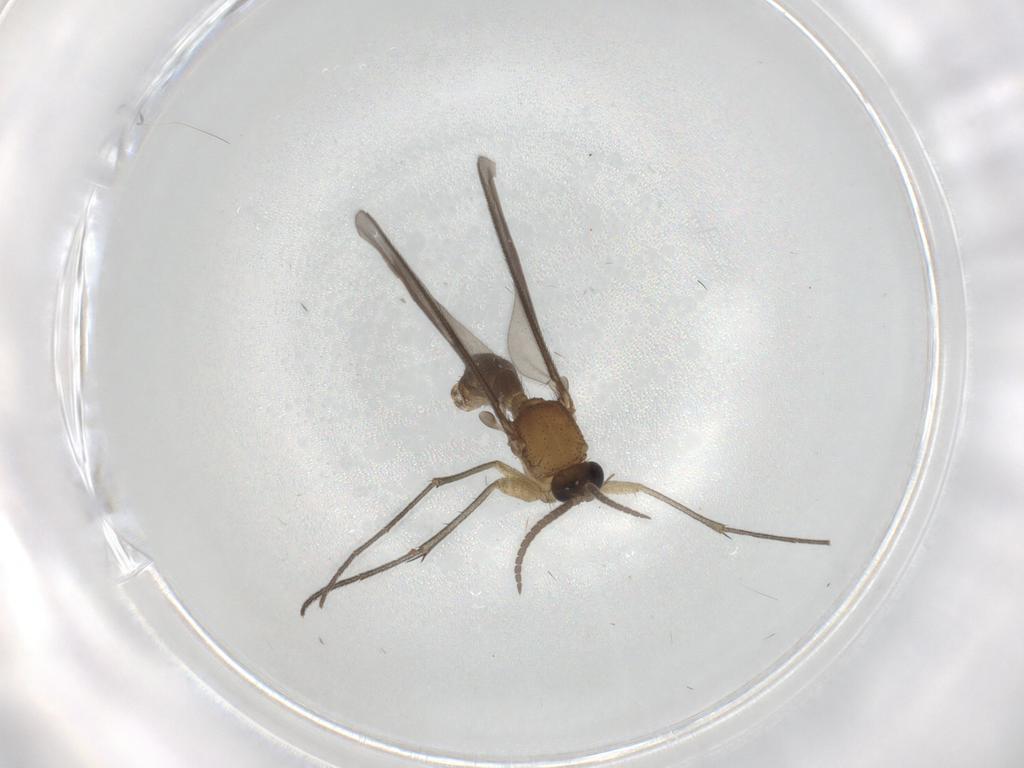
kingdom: Animalia
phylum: Arthropoda
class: Insecta
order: Diptera
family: Mycetophilidae
